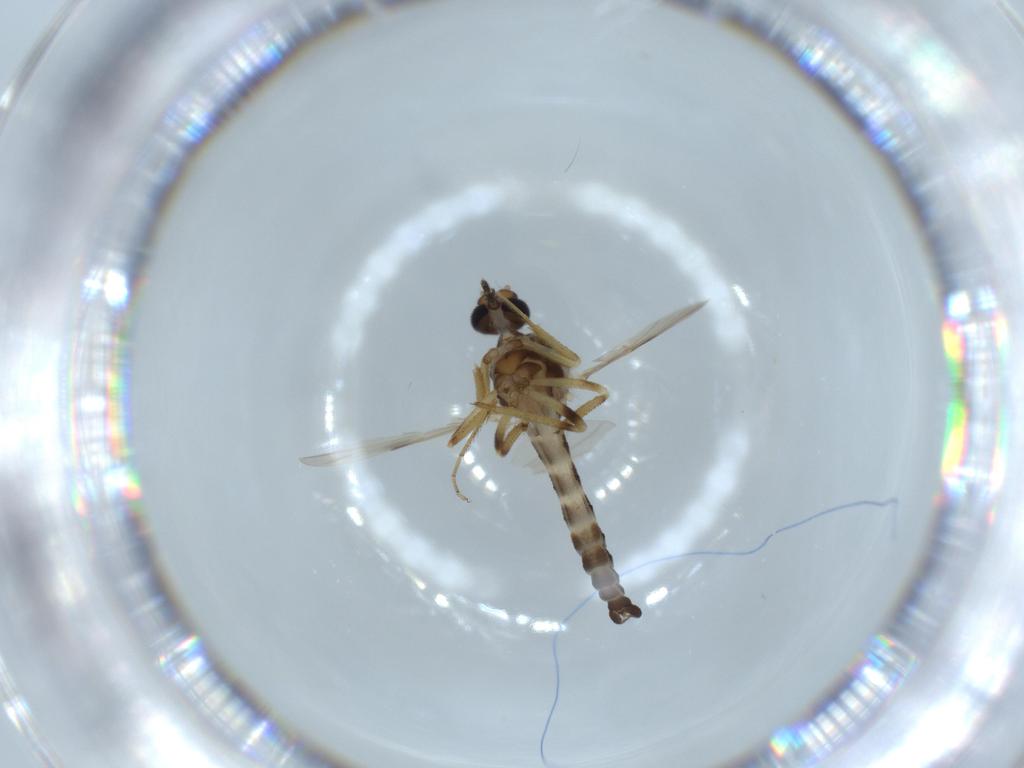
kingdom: Animalia
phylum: Arthropoda
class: Insecta
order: Diptera
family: Ceratopogonidae
